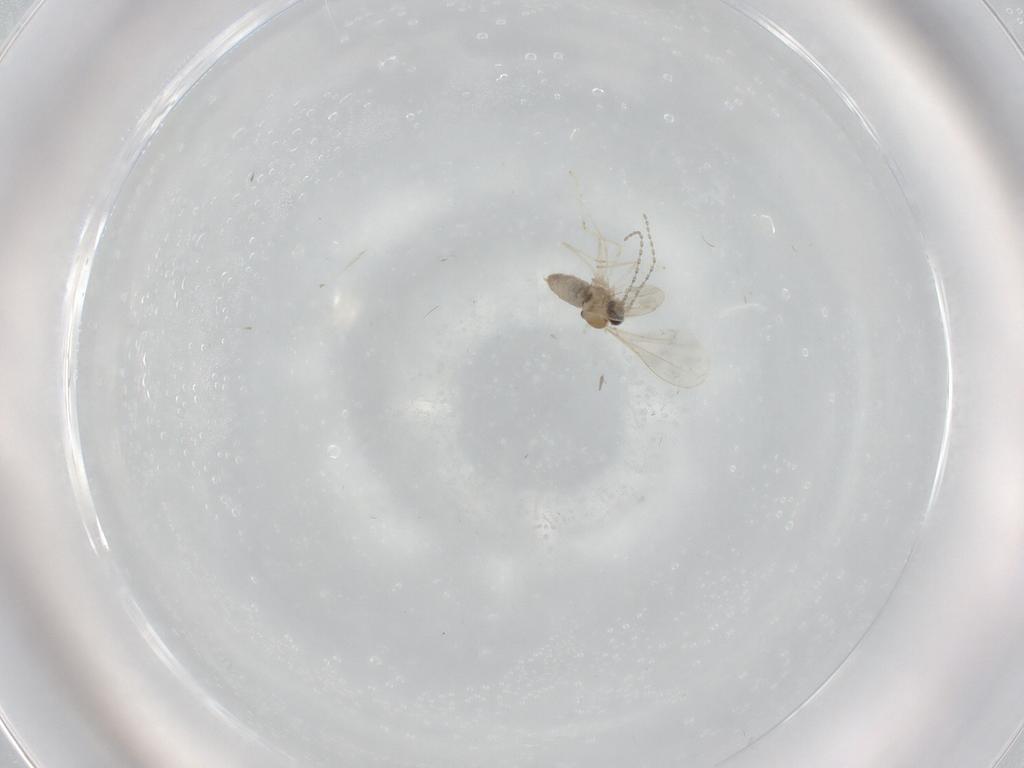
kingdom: Animalia
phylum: Arthropoda
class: Insecta
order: Diptera
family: Cecidomyiidae
